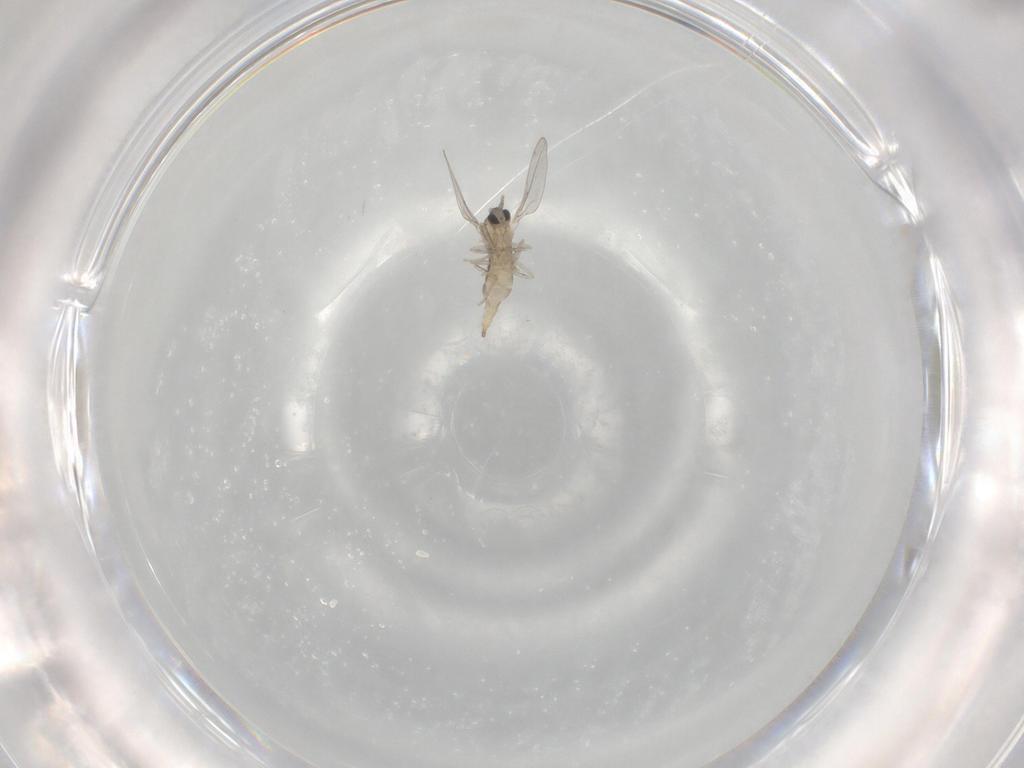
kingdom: Animalia
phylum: Arthropoda
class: Insecta
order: Diptera
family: Cecidomyiidae
